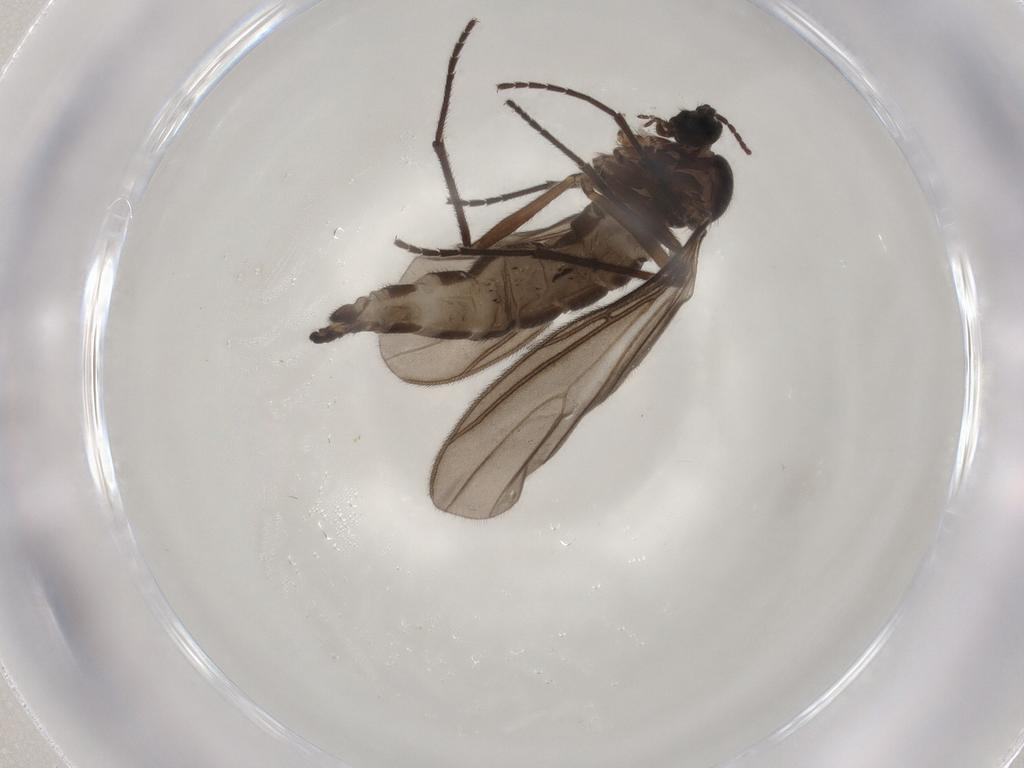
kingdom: Animalia
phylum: Arthropoda
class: Insecta
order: Diptera
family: Sciaridae
